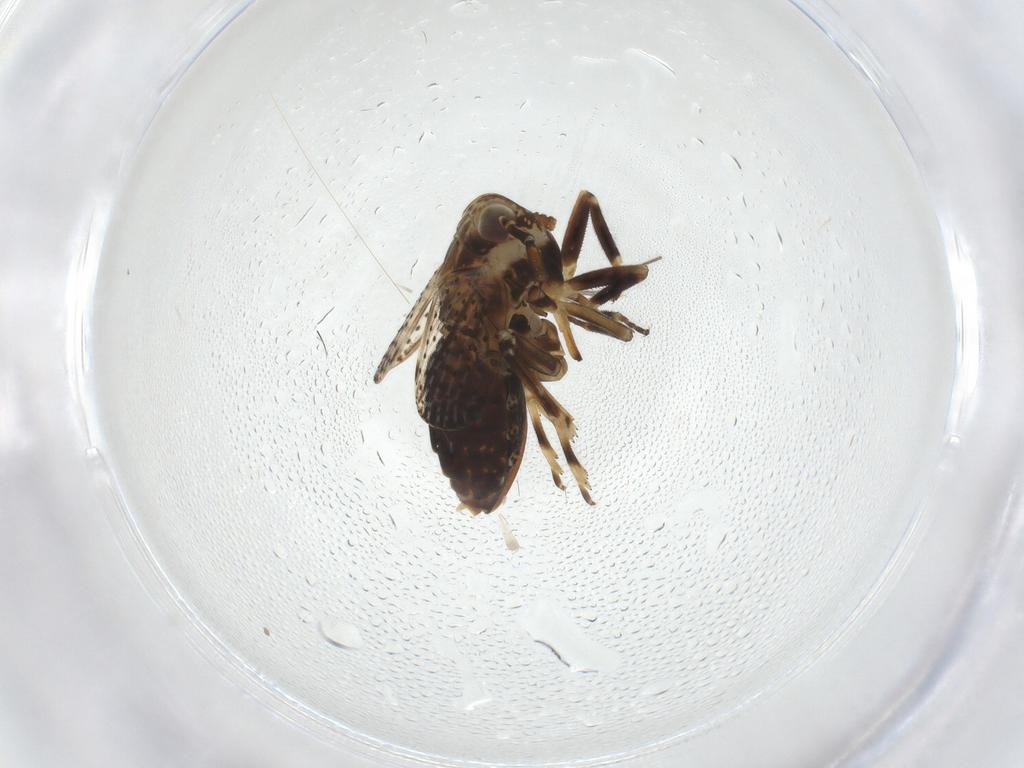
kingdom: Animalia
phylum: Arthropoda
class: Insecta
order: Hemiptera
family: Delphacidae
